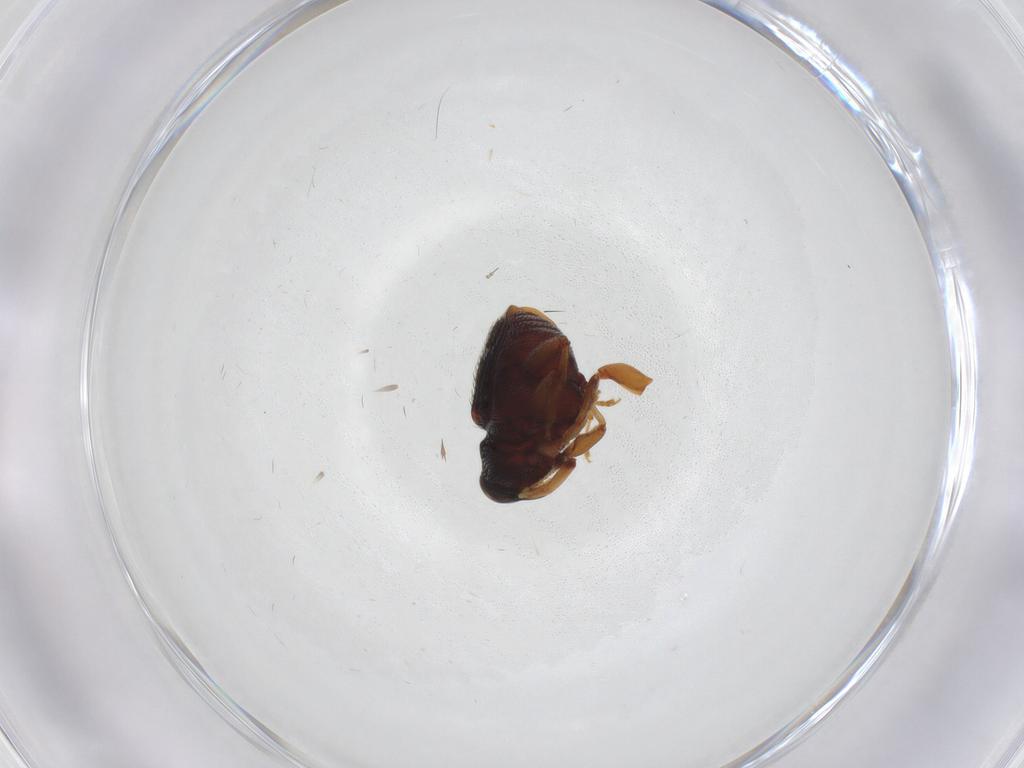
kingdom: Animalia
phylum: Arthropoda
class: Insecta
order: Coleoptera
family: Curculionidae
